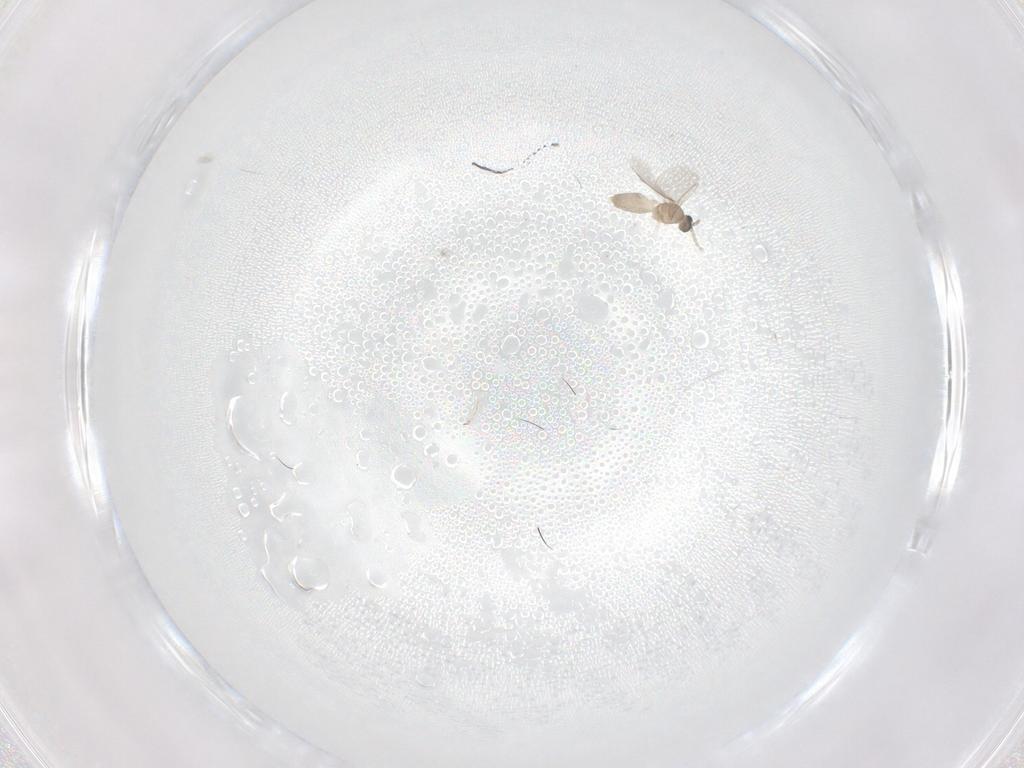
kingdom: Animalia
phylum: Arthropoda
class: Insecta
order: Diptera
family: Cecidomyiidae
